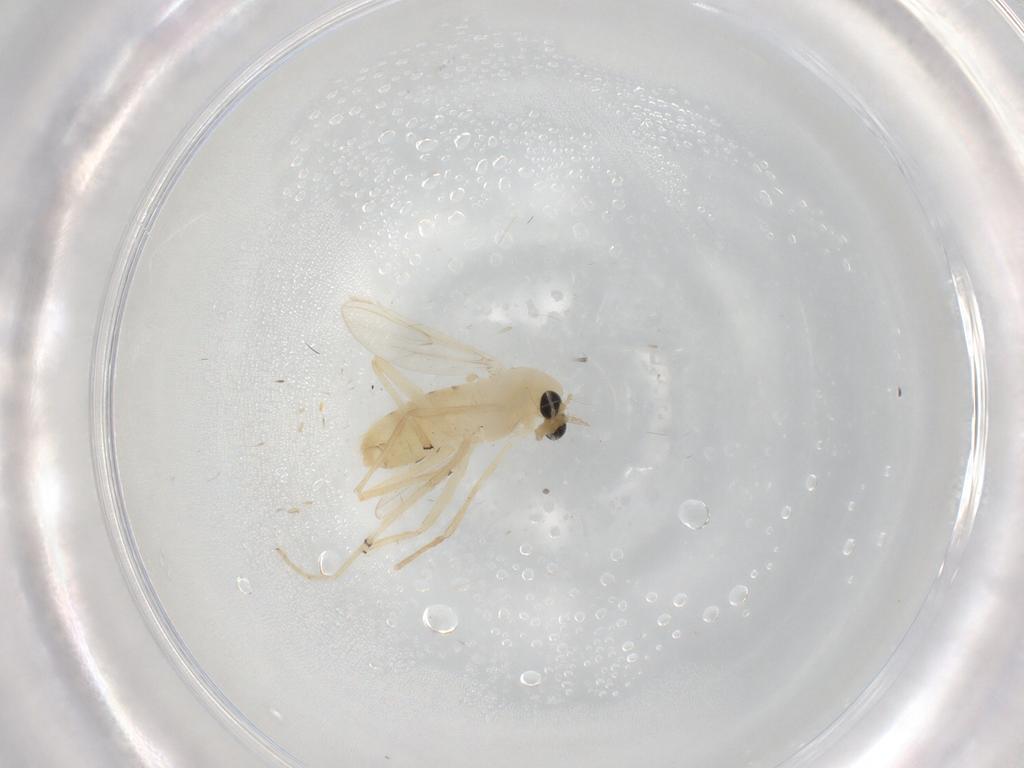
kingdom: Animalia
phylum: Arthropoda
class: Insecta
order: Diptera
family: Chironomidae
